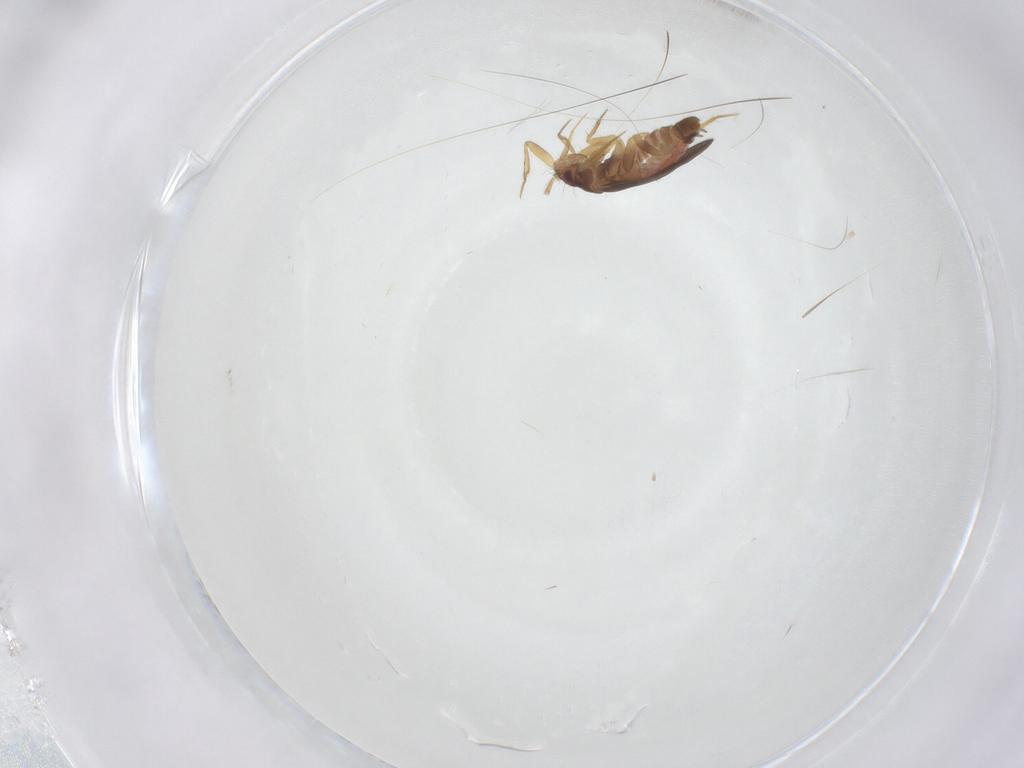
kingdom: Animalia
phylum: Arthropoda
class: Insecta
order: Hemiptera
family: Ceratocombidae
